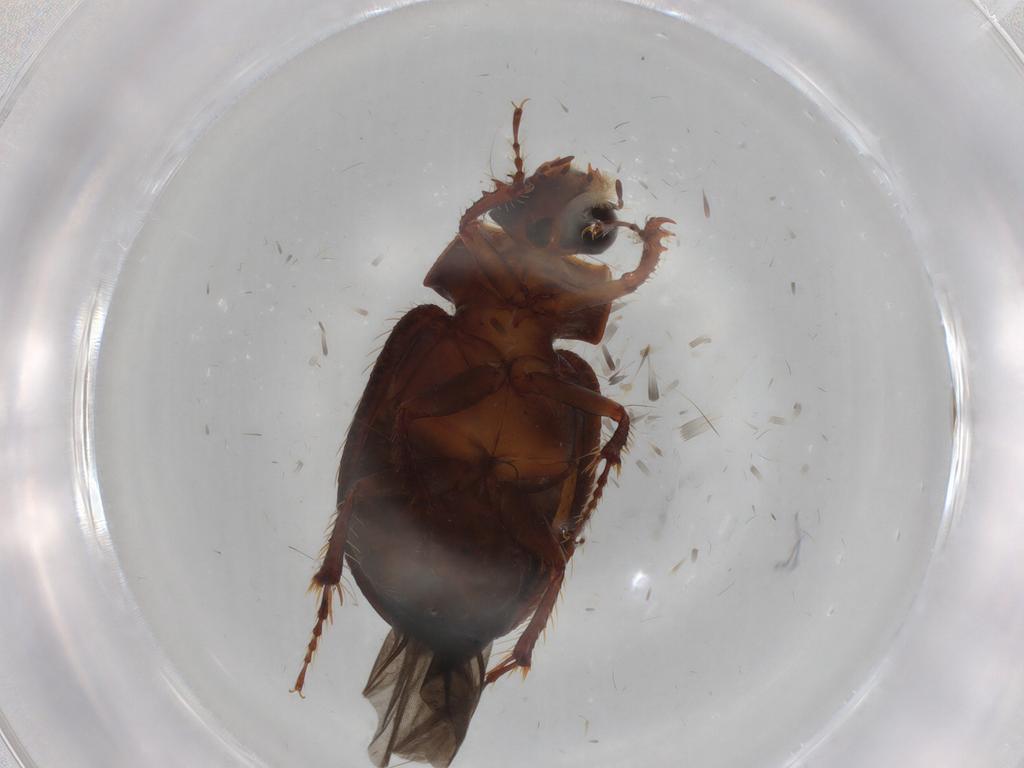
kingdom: Animalia
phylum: Arthropoda
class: Insecta
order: Coleoptera
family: Hybosoridae
